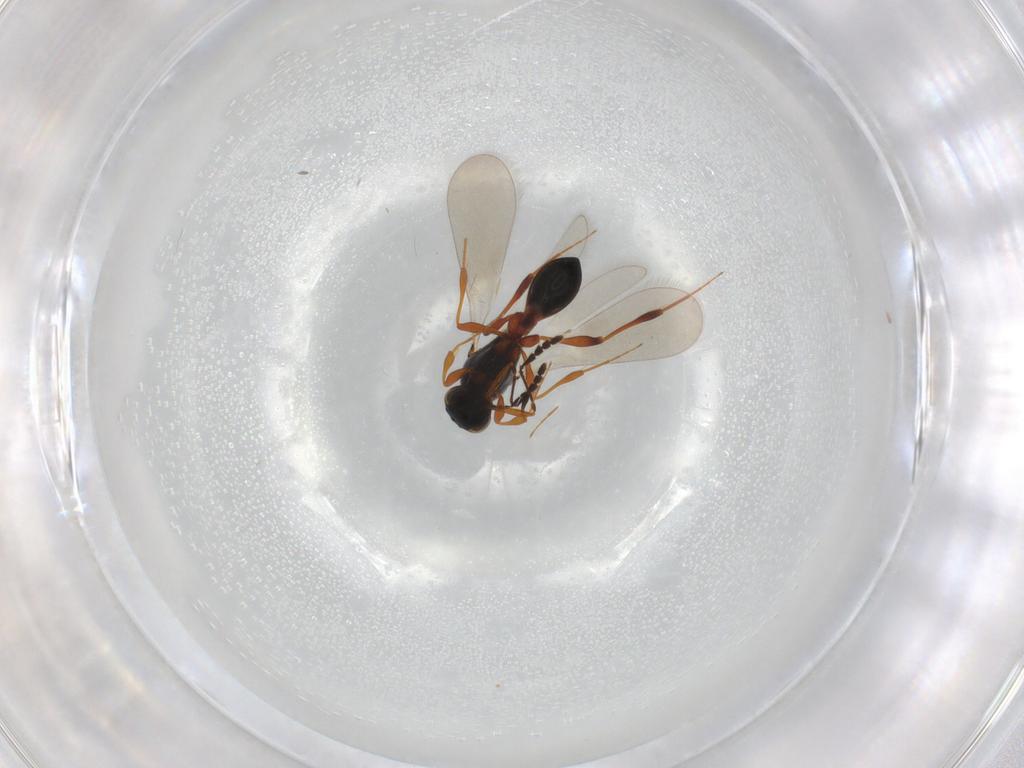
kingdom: Animalia
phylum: Arthropoda
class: Insecta
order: Hymenoptera
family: Platygastridae
